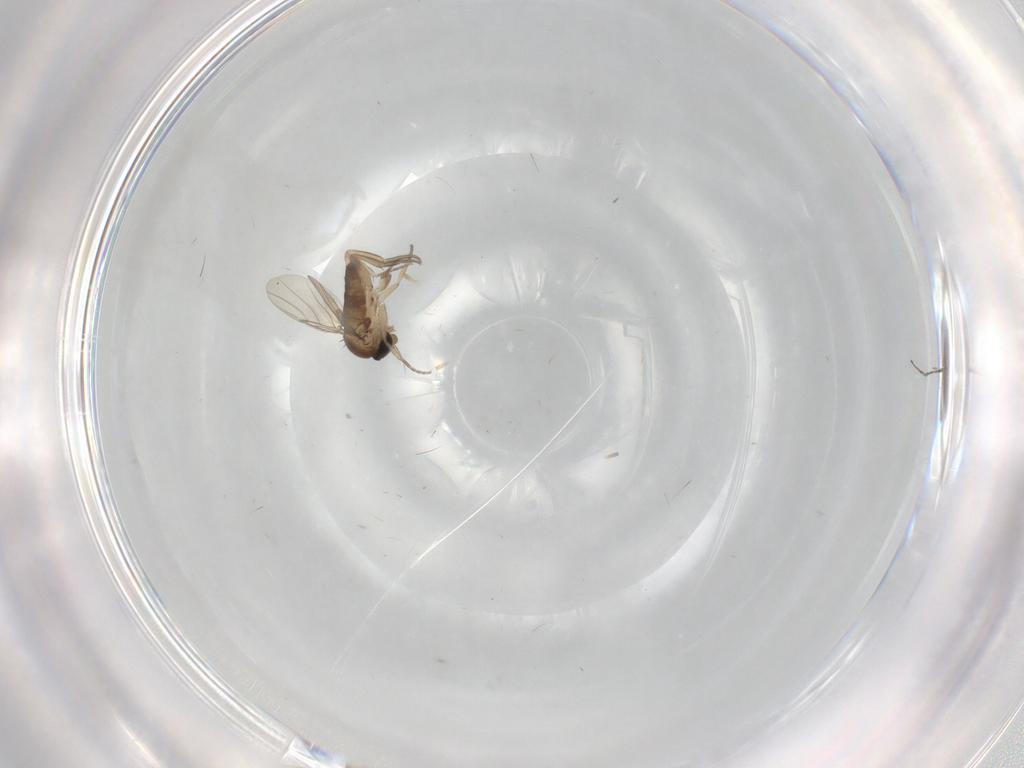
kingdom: Animalia
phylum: Arthropoda
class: Insecta
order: Diptera
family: Phoridae
